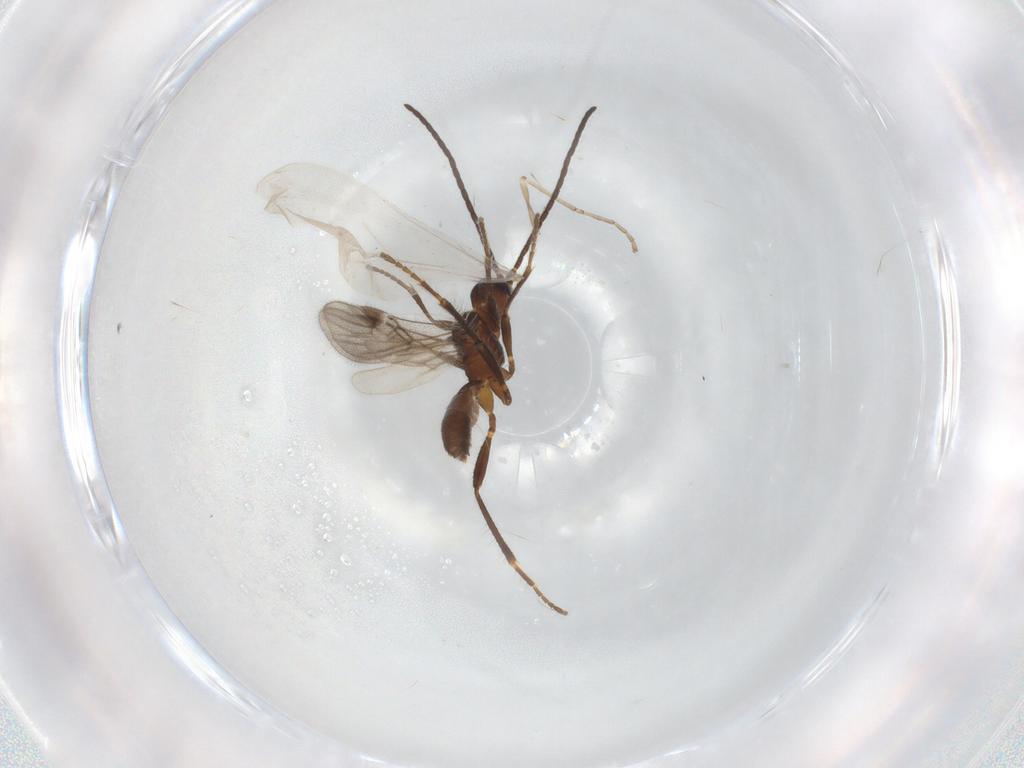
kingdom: Animalia
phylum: Arthropoda
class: Insecta
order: Hymenoptera
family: Braconidae
